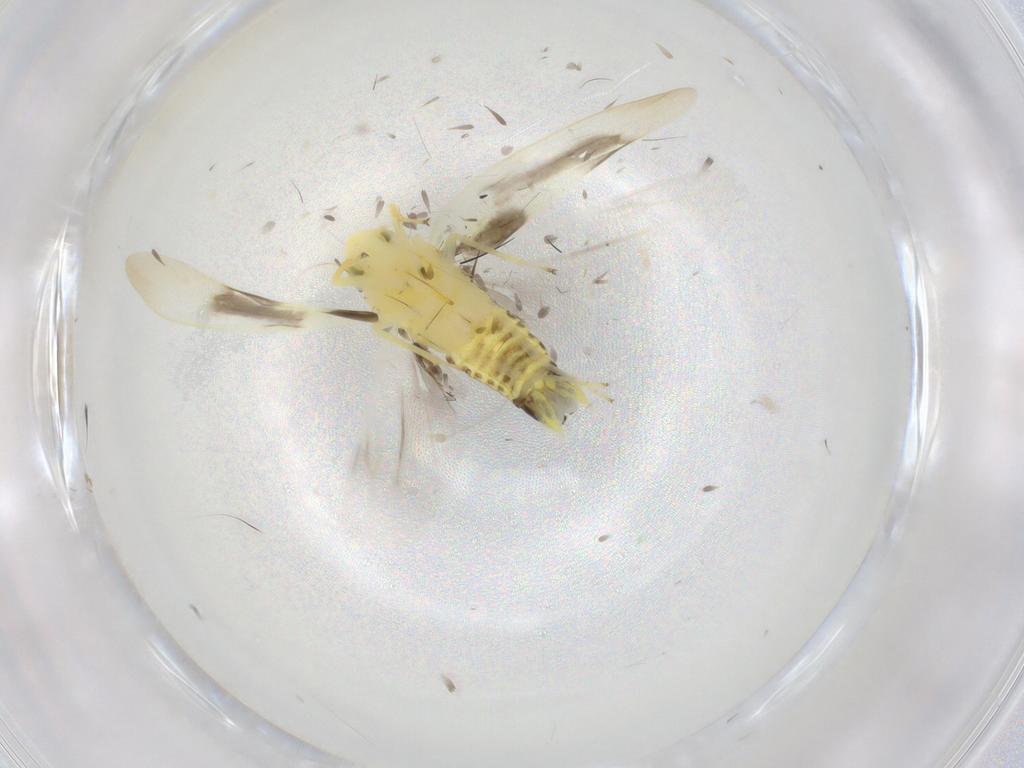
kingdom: Animalia
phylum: Arthropoda
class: Insecta
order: Hemiptera
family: Cicadellidae
